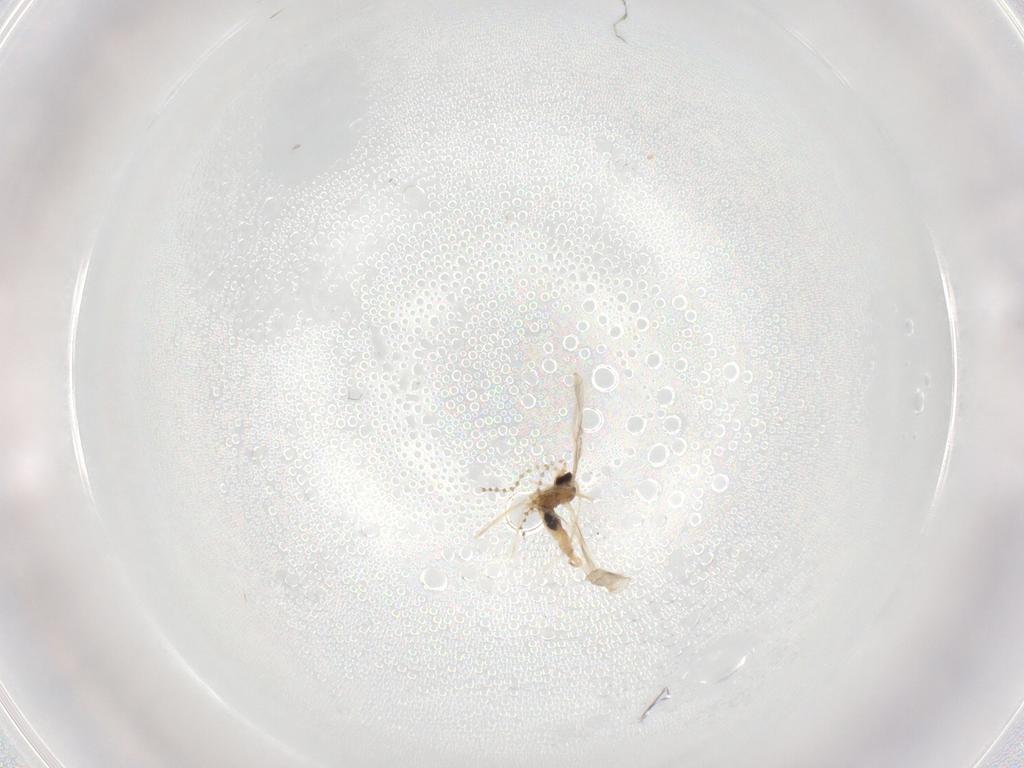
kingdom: Animalia
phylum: Arthropoda
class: Insecta
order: Diptera
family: Cecidomyiidae
